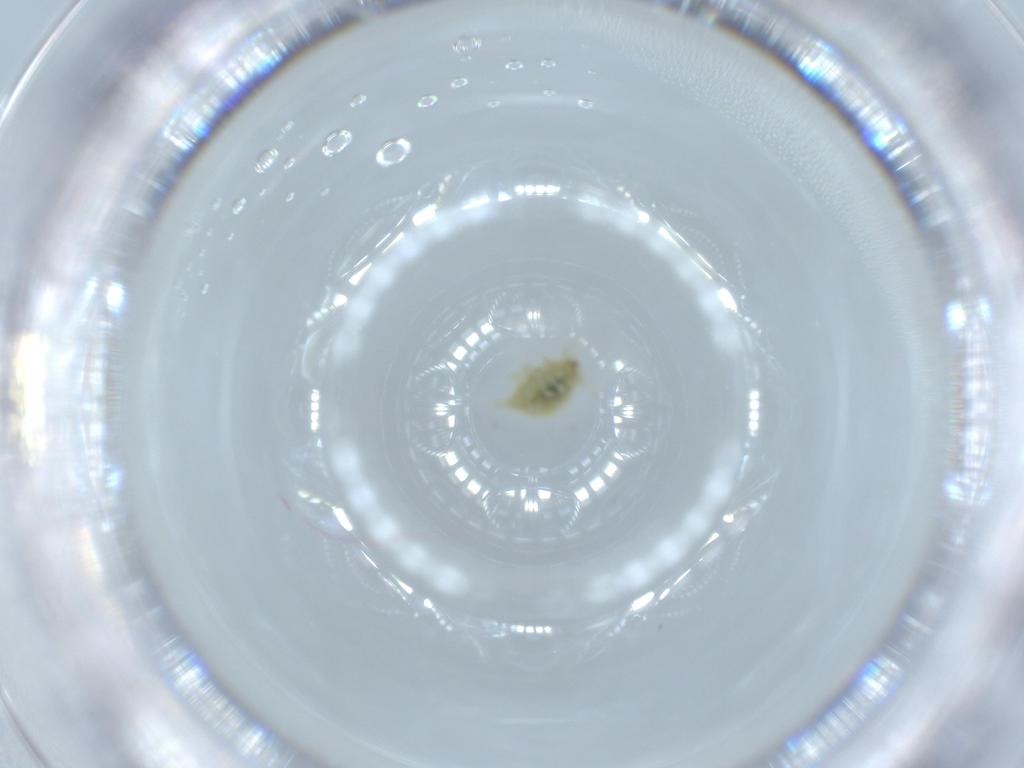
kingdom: Animalia
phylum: Arthropoda
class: Insecta
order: Neuroptera
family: Coniopterygidae
